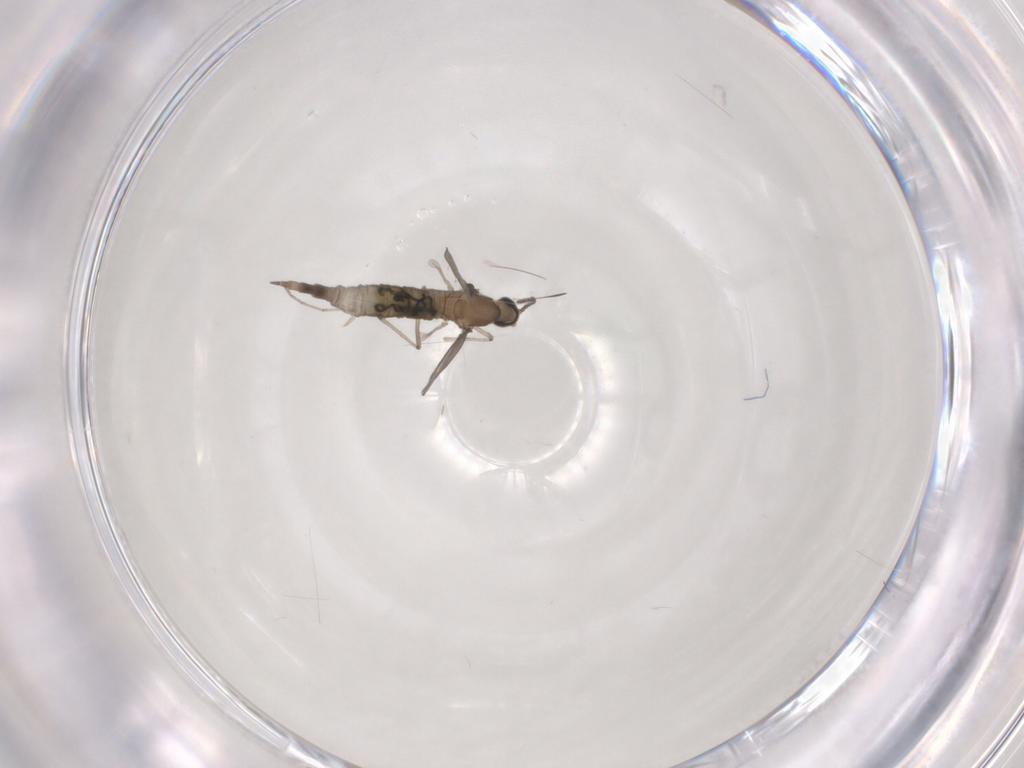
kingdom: Animalia
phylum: Arthropoda
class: Insecta
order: Diptera
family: Cecidomyiidae
